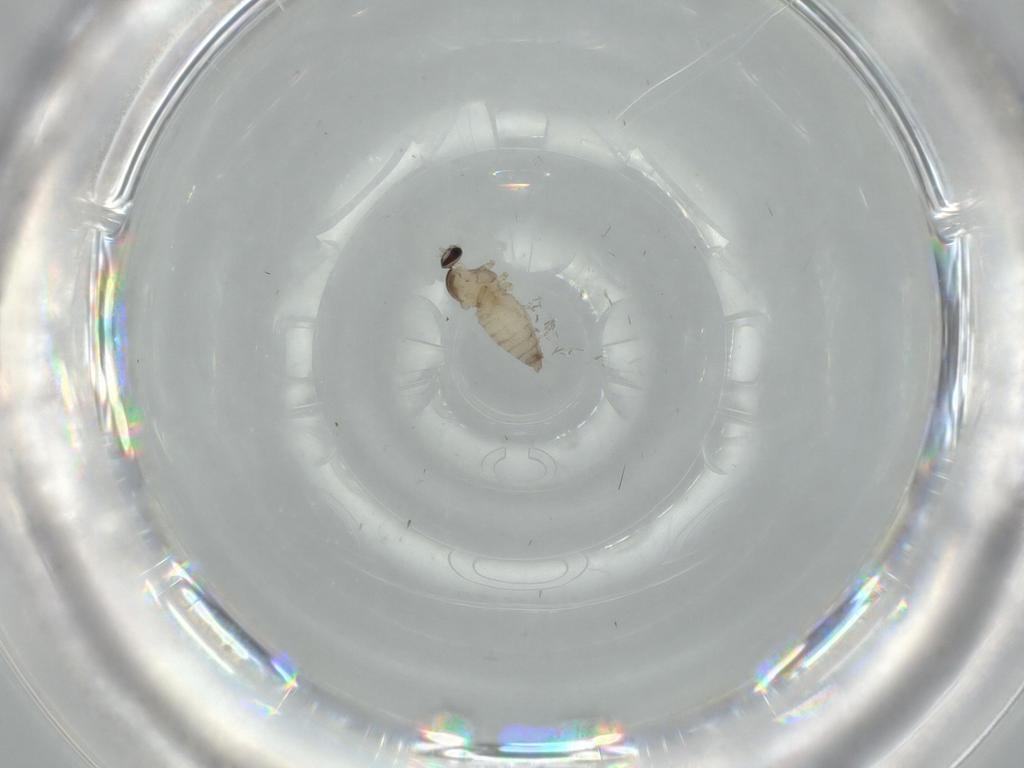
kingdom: Animalia
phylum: Arthropoda
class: Insecta
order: Diptera
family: Cecidomyiidae
